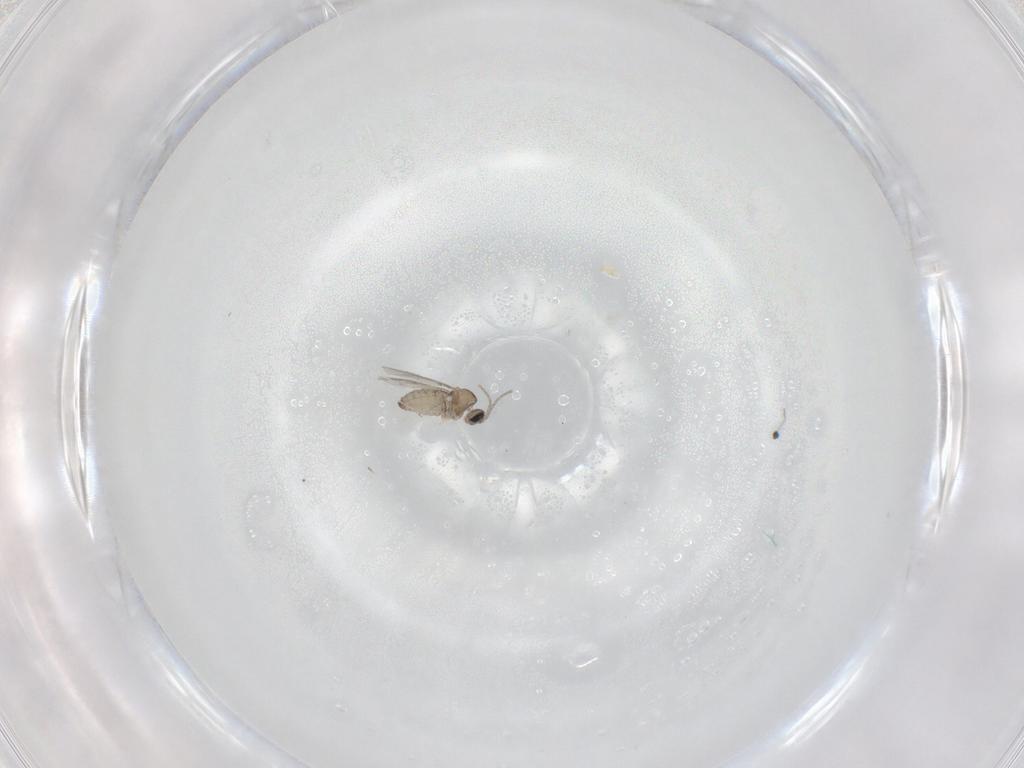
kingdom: Animalia
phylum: Arthropoda
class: Insecta
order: Diptera
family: Cecidomyiidae
